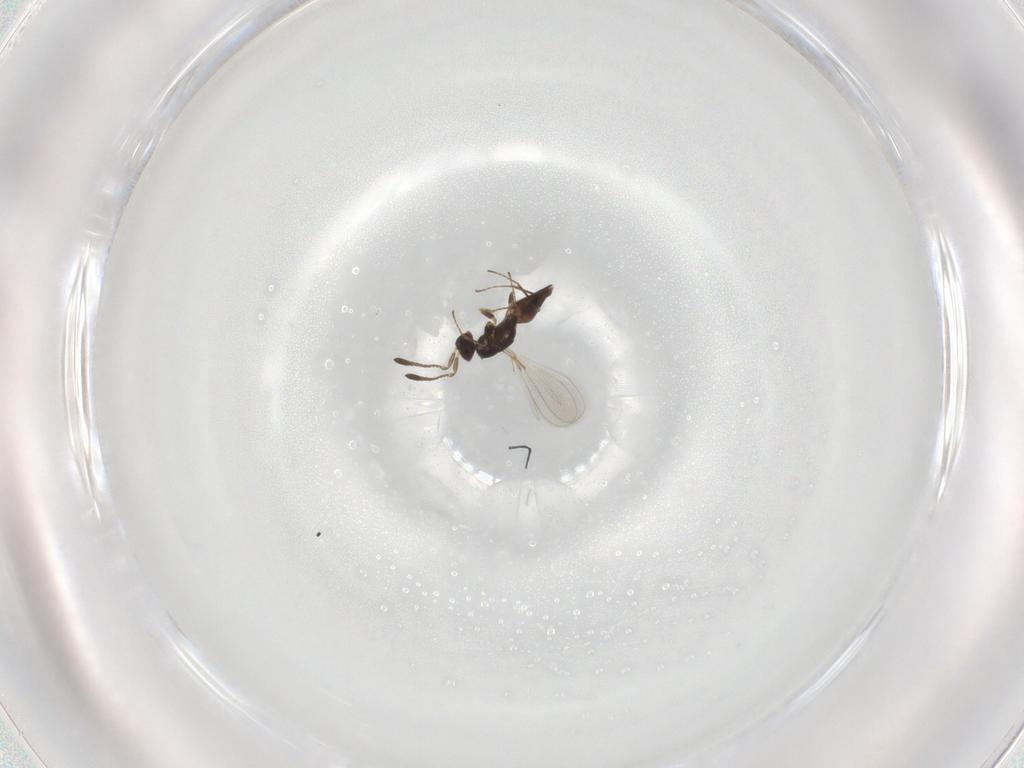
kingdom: Animalia
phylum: Arthropoda
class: Insecta
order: Hymenoptera
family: Mymaridae
